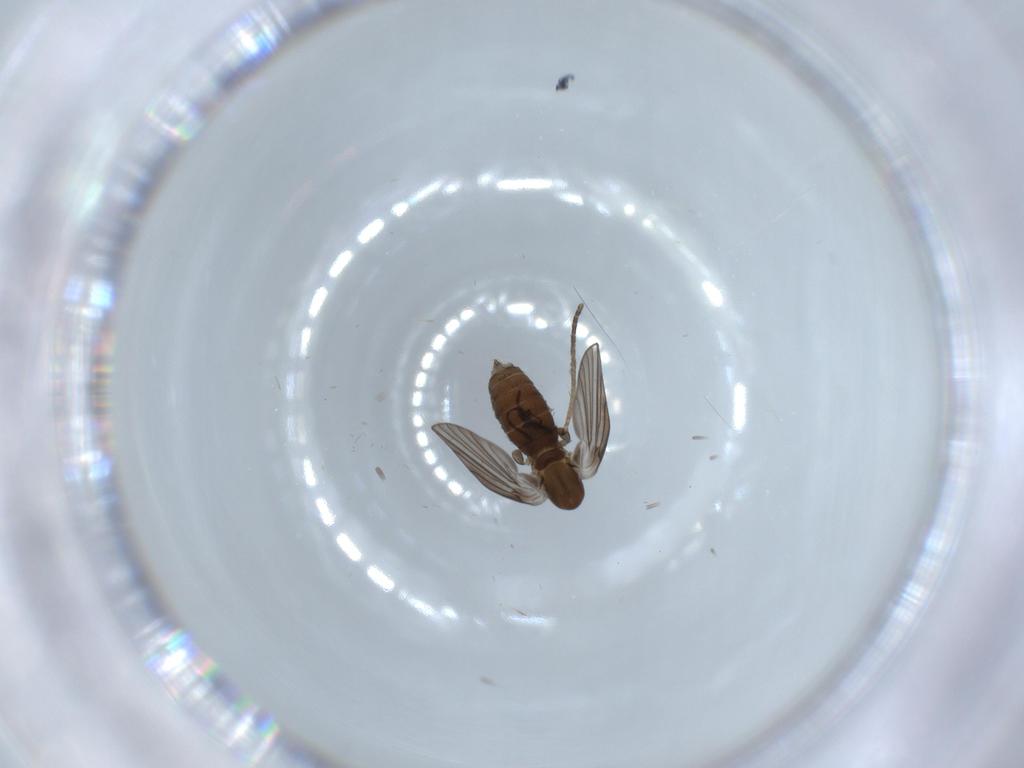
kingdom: Animalia
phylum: Arthropoda
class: Insecta
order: Diptera
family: Psychodidae
